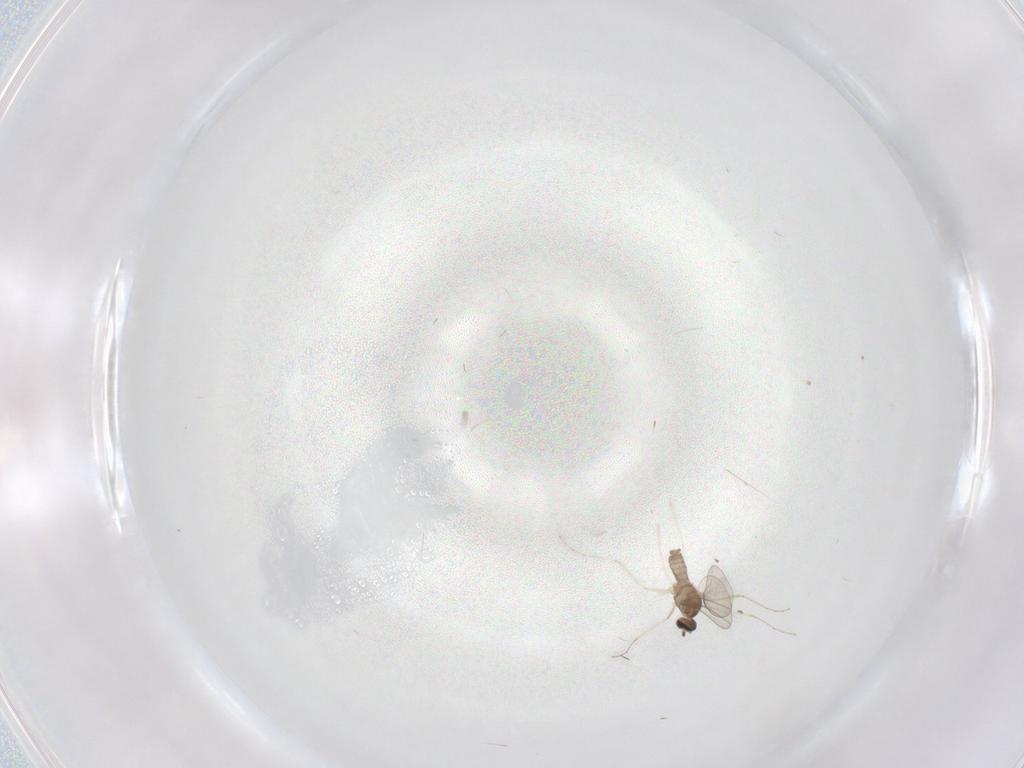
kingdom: Animalia
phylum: Arthropoda
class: Insecta
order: Diptera
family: Cecidomyiidae
